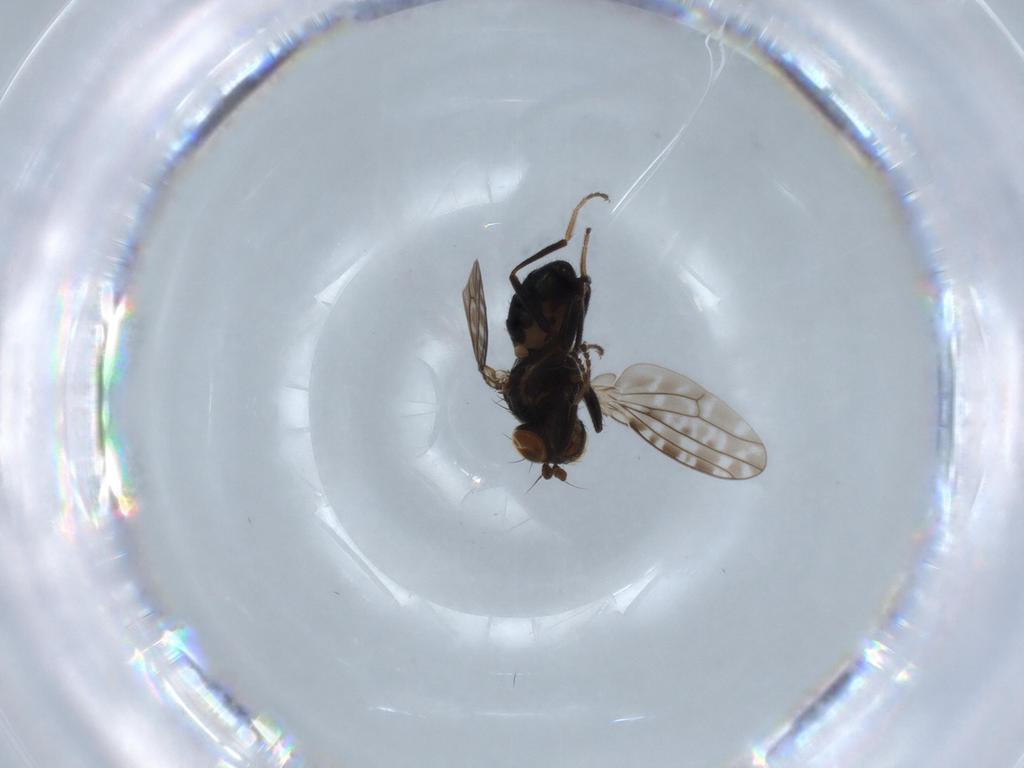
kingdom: Animalia
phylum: Arthropoda
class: Insecta
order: Diptera
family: Ephydridae
